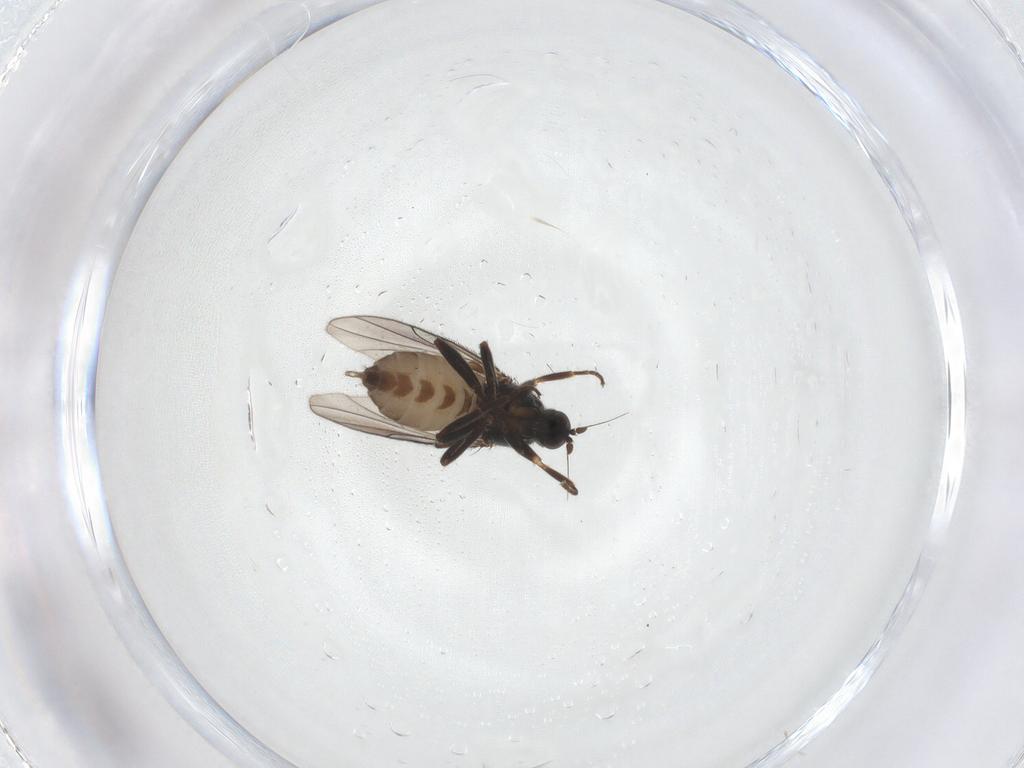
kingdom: Animalia
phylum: Arthropoda
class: Insecta
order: Diptera
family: Hybotidae
